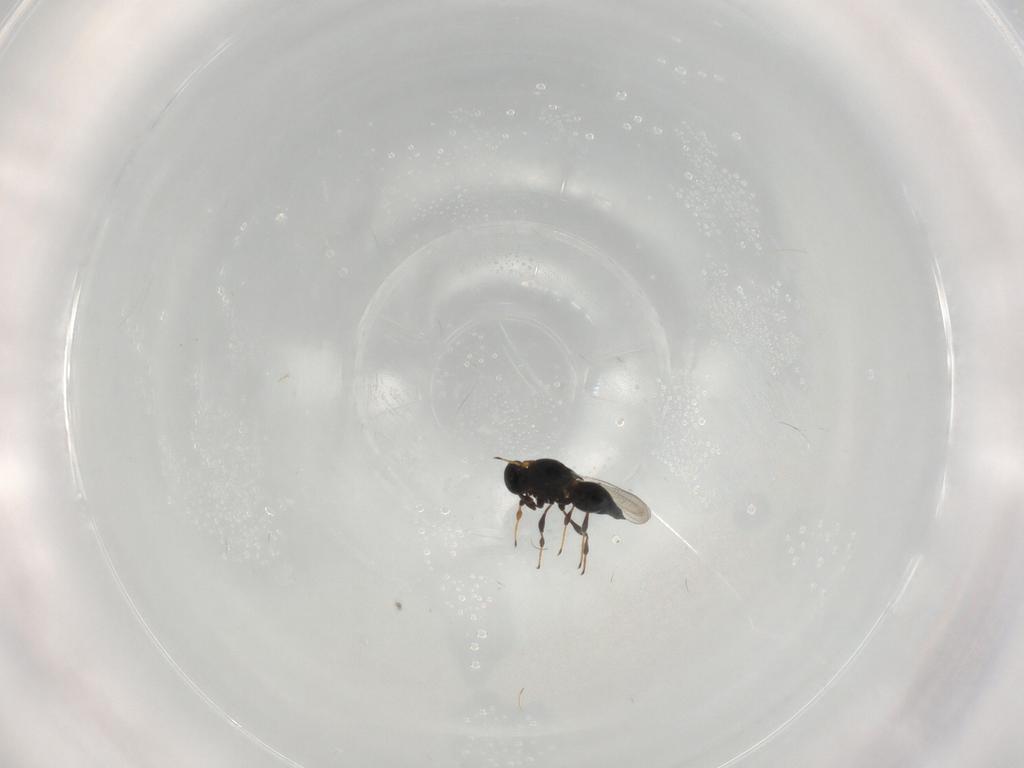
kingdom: Animalia
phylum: Arthropoda
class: Insecta
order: Hymenoptera
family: Platygastridae
